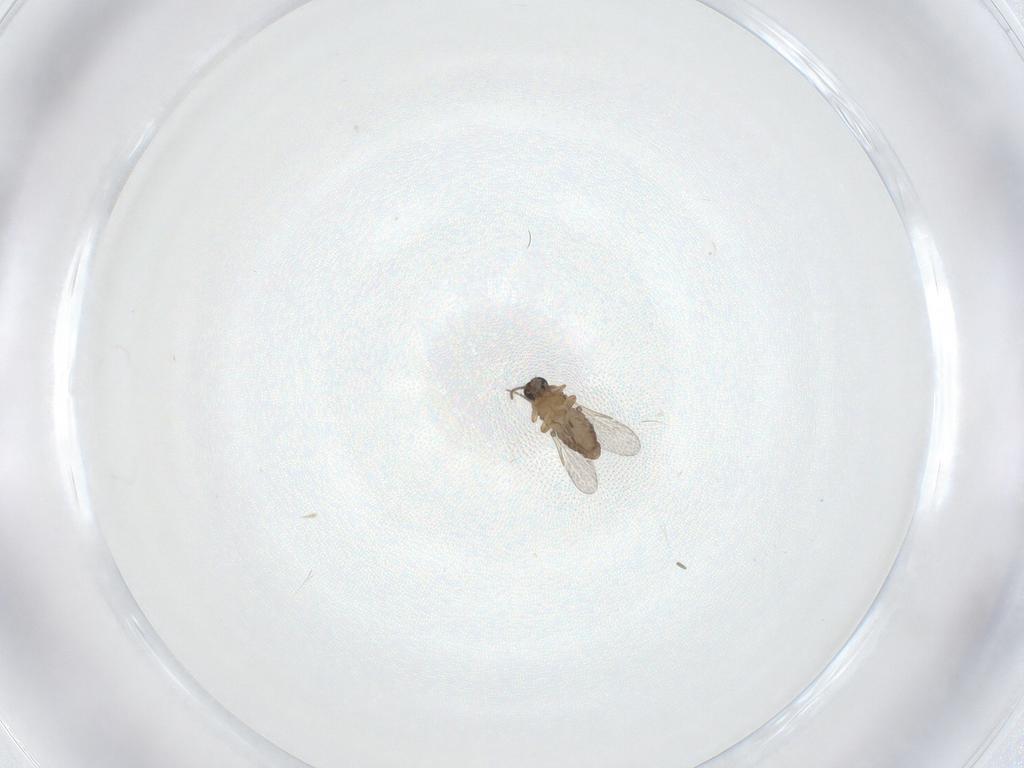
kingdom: Animalia
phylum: Arthropoda
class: Insecta
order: Diptera
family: Phoridae
